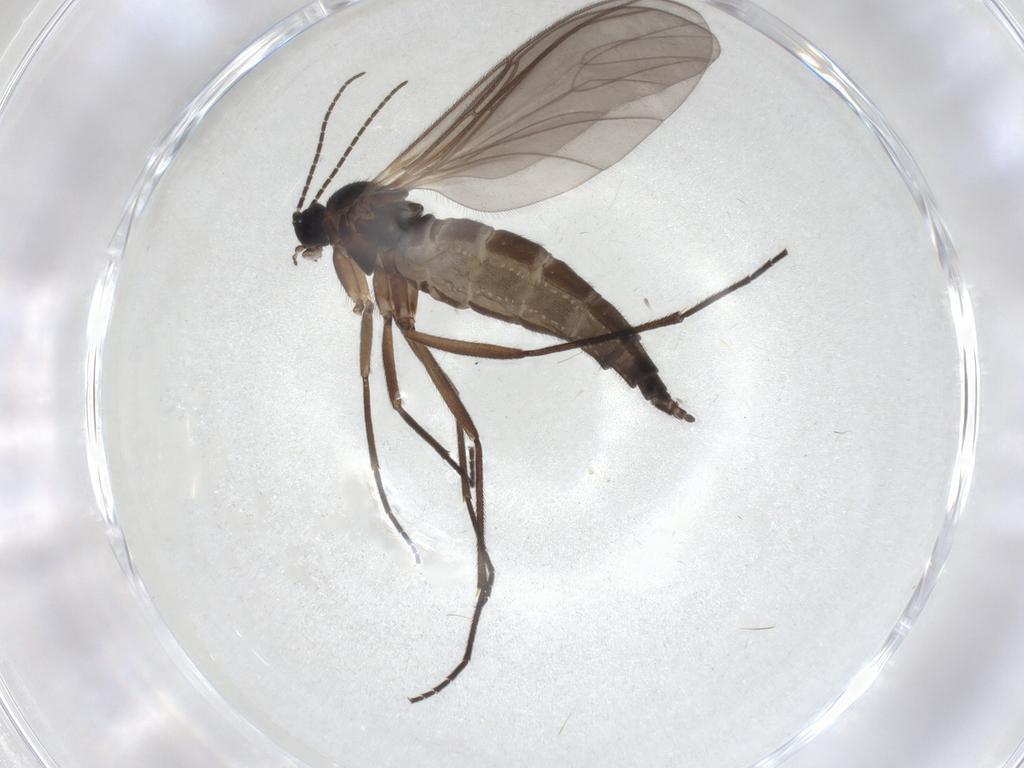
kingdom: Animalia
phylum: Arthropoda
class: Insecta
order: Diptera
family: Sciaridae
